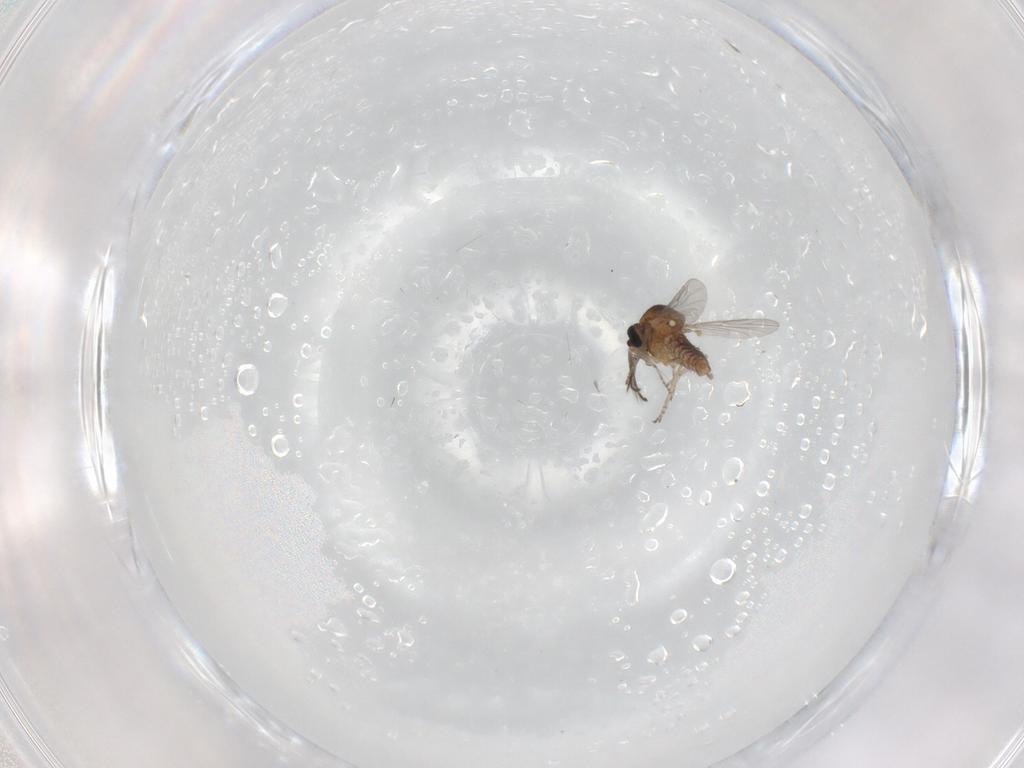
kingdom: Animalia
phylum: Arthropoda
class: Insecta
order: Diptera
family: Ceratopogonidae
